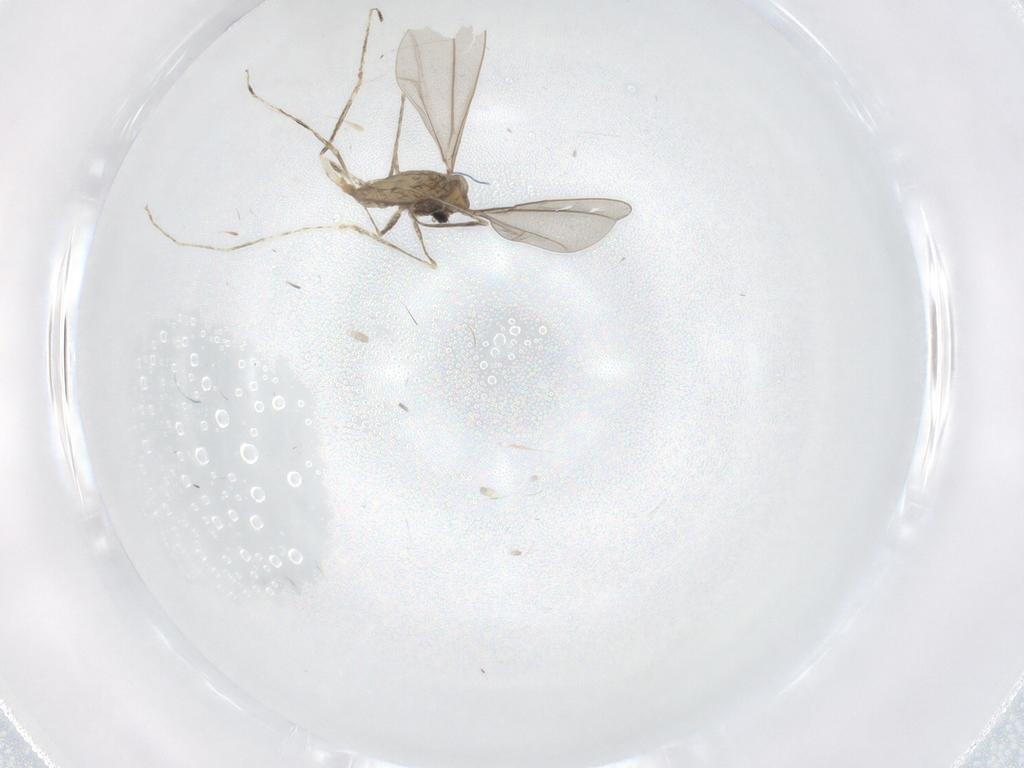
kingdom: Animalia
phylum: Arthropoda
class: Insecta
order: Diptera
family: Cecidomyiidae
